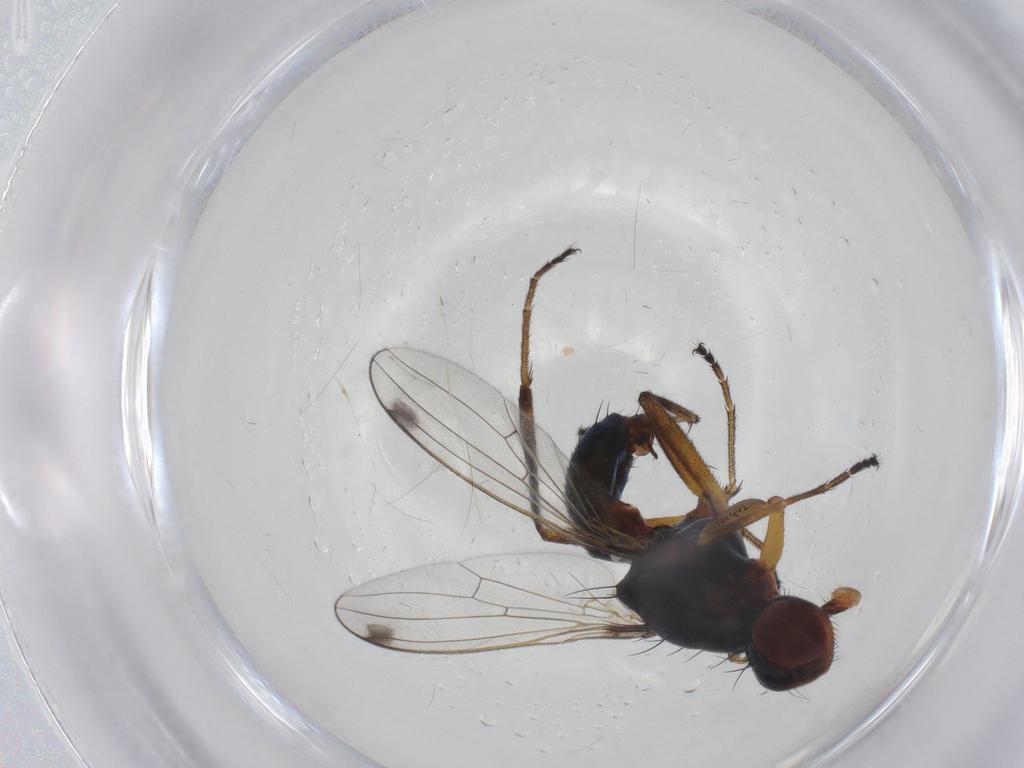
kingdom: Animalia
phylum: Arthropoda
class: Insecta
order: Diptera
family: Sepsidae
